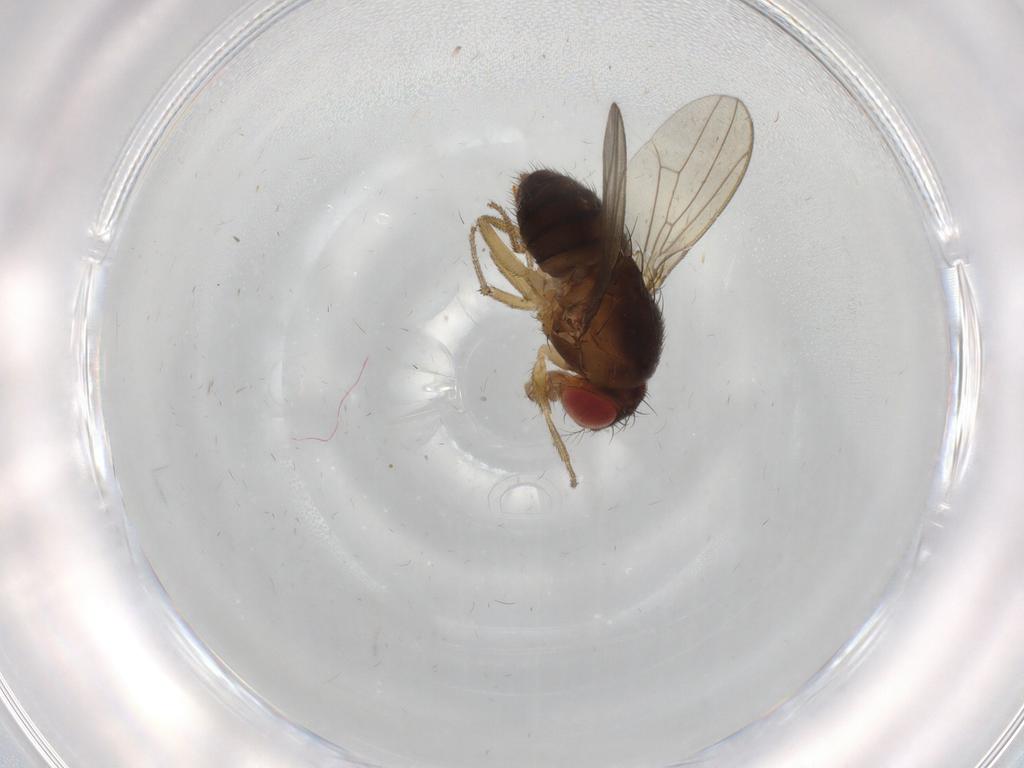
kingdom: Animalia
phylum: Arthropoda
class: Insecta
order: Diptera
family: Drosophilidae
